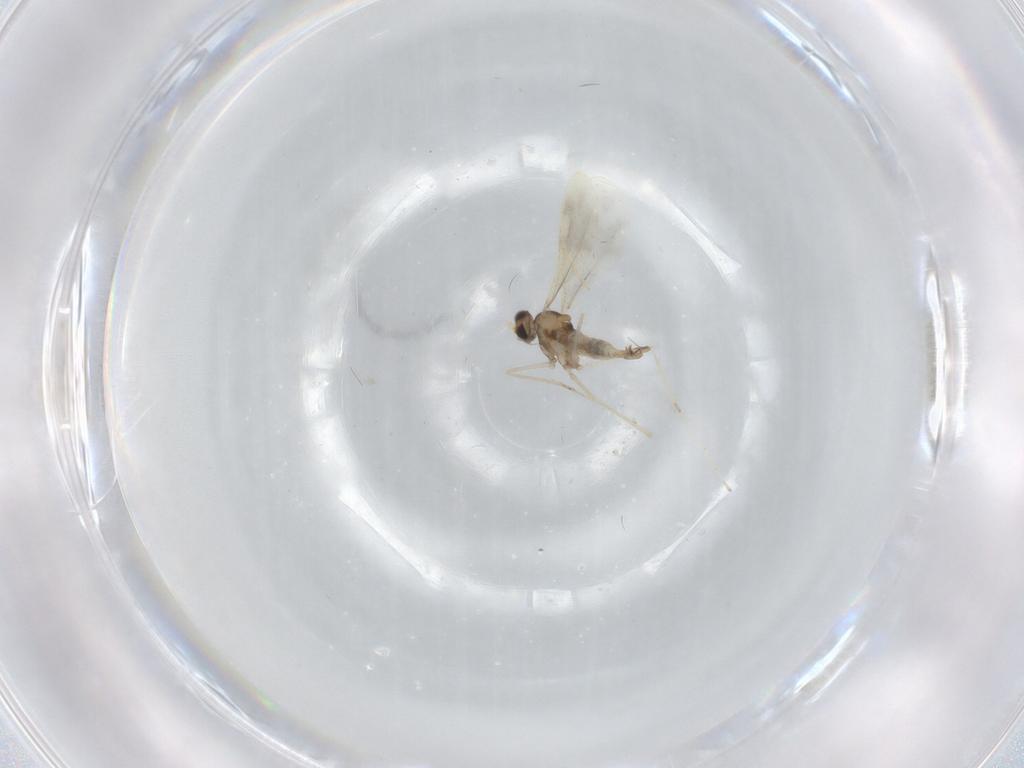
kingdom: Animalia
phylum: Arthropoda
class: Insecta
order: Diptera
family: Cecidomyiidae
